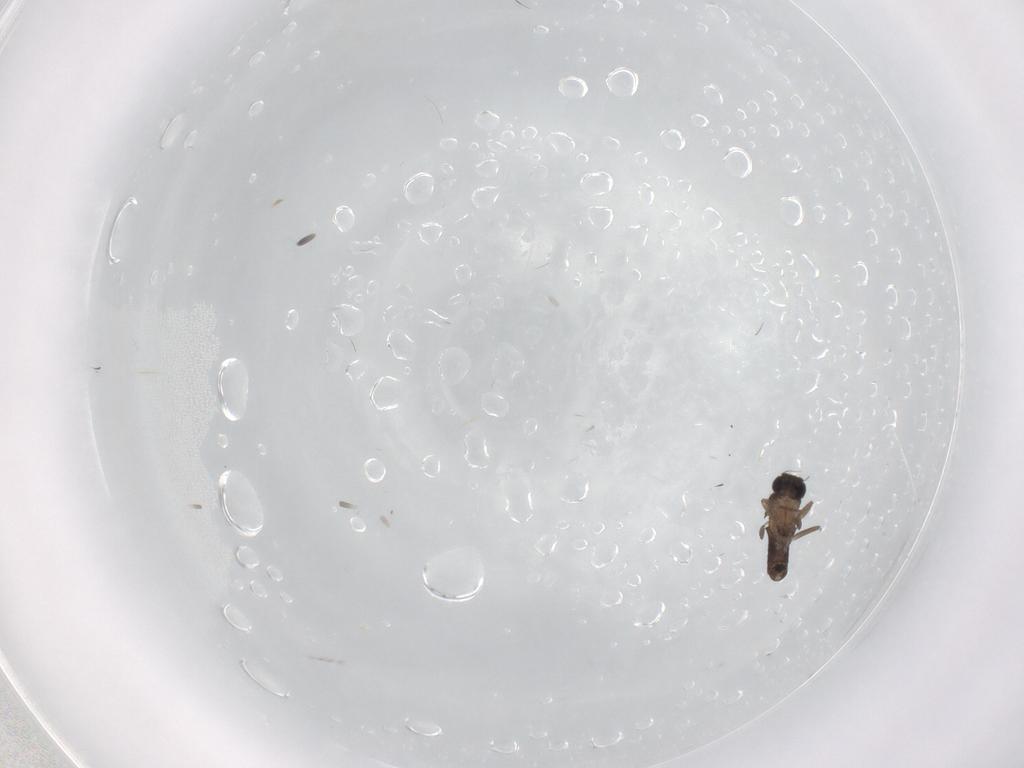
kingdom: Animalia
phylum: Arthropoda
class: Insecta
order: Diptera
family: Phoridae
